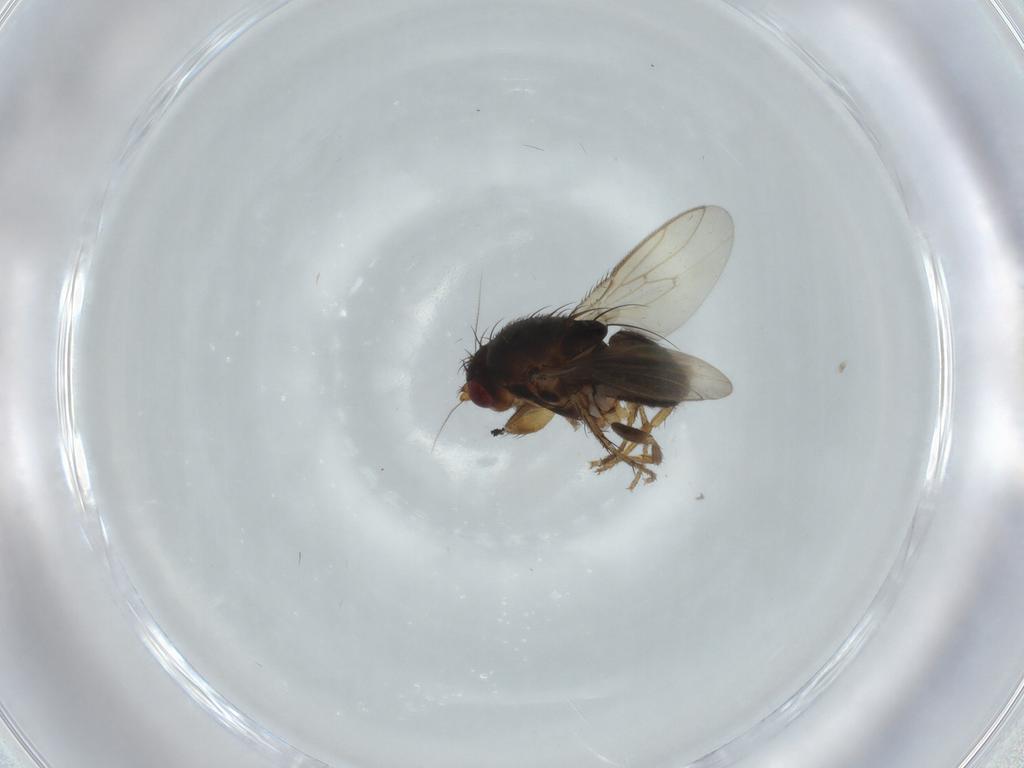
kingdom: Animalia
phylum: Arthropoda
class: Insecta
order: Diptera
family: Sphaeroceridae
